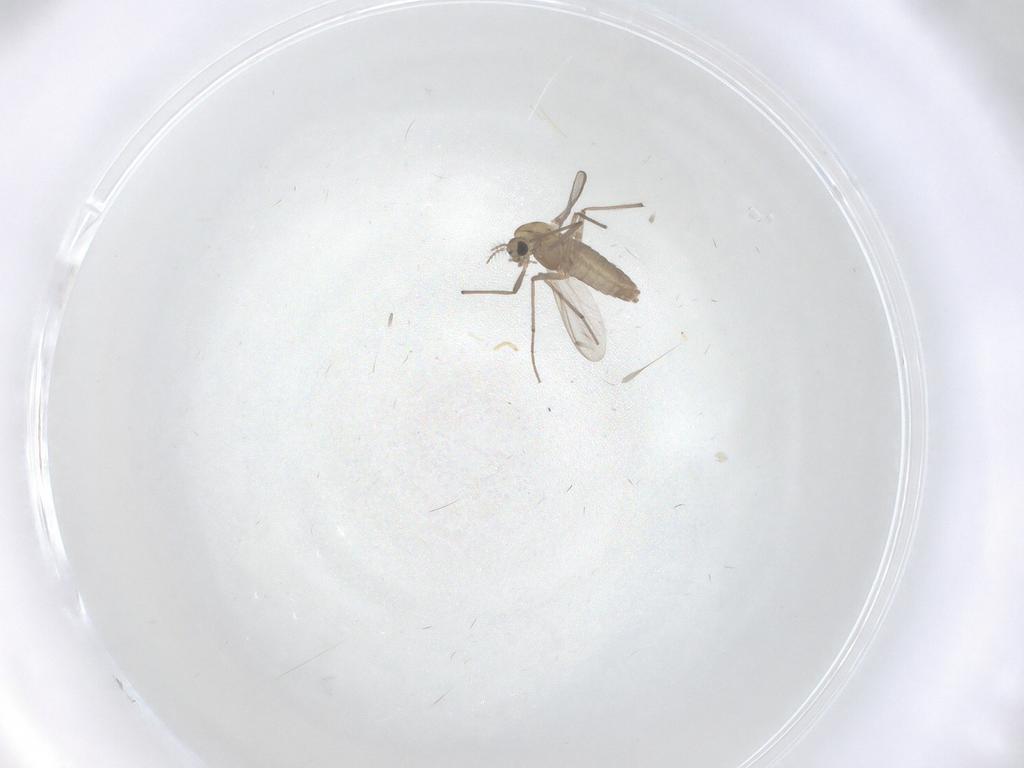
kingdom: Animalia
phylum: Arthropoda
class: Insecta
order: Diptera
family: Chironomidae
